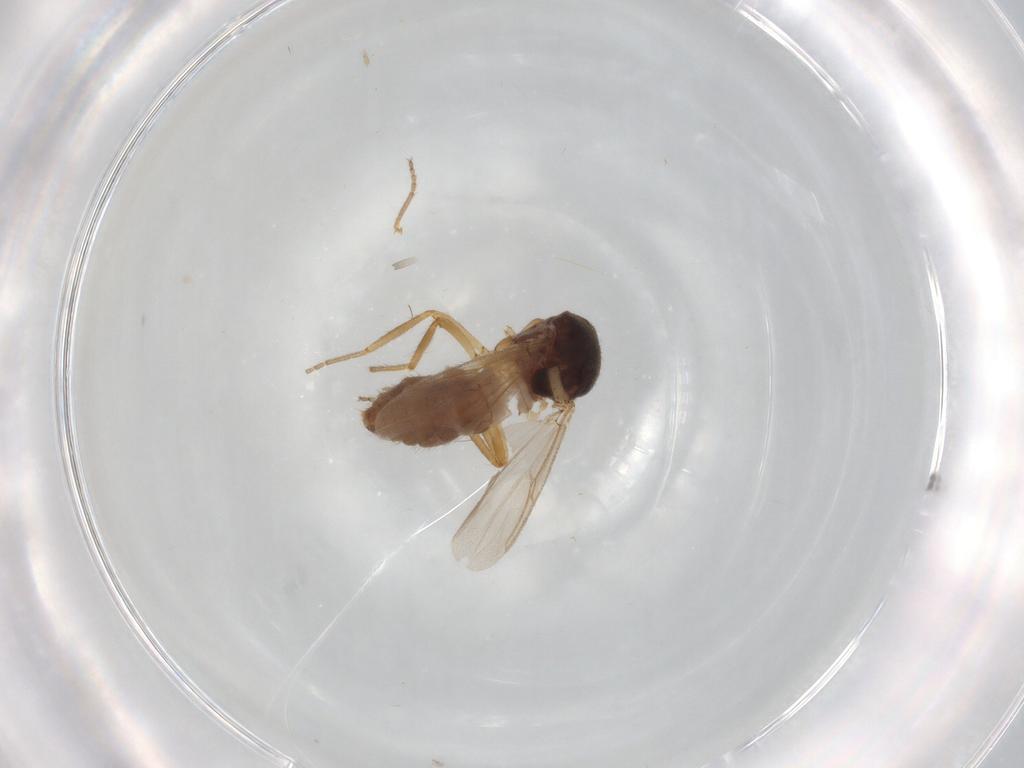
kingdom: Animalia
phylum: Arthropoda
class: Insecta
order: Diptera
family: Ceratopogonidae
